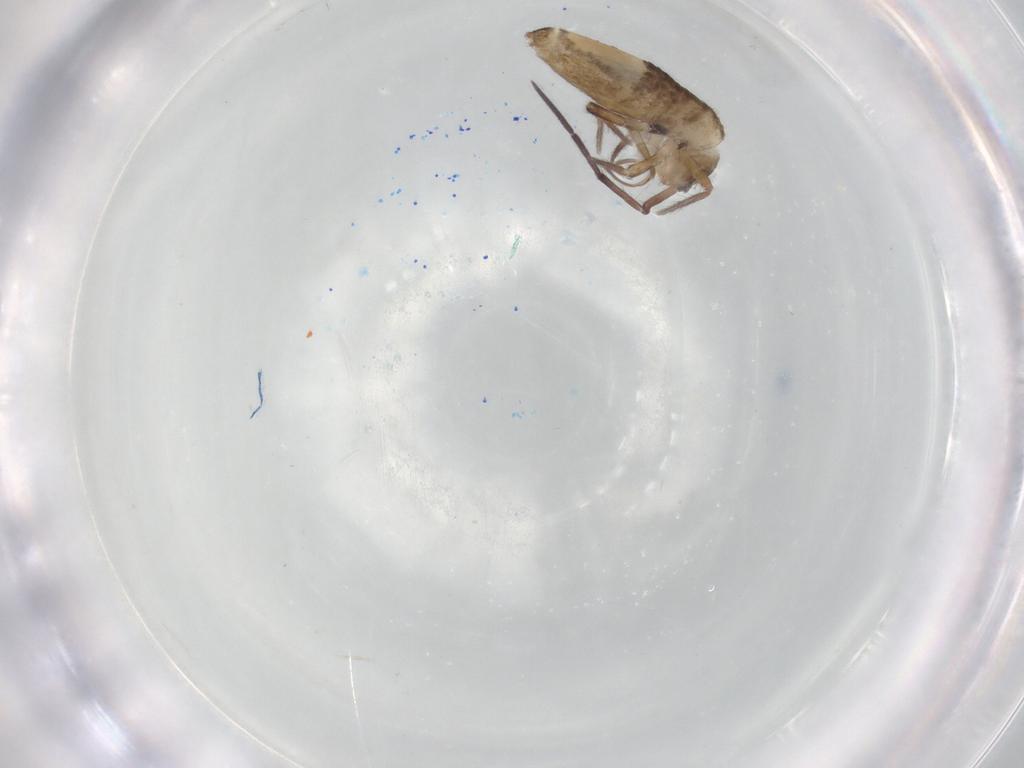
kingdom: Animalia
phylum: Arthropoda
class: Collembola
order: Entomobryomorpha
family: Entomobryidae
